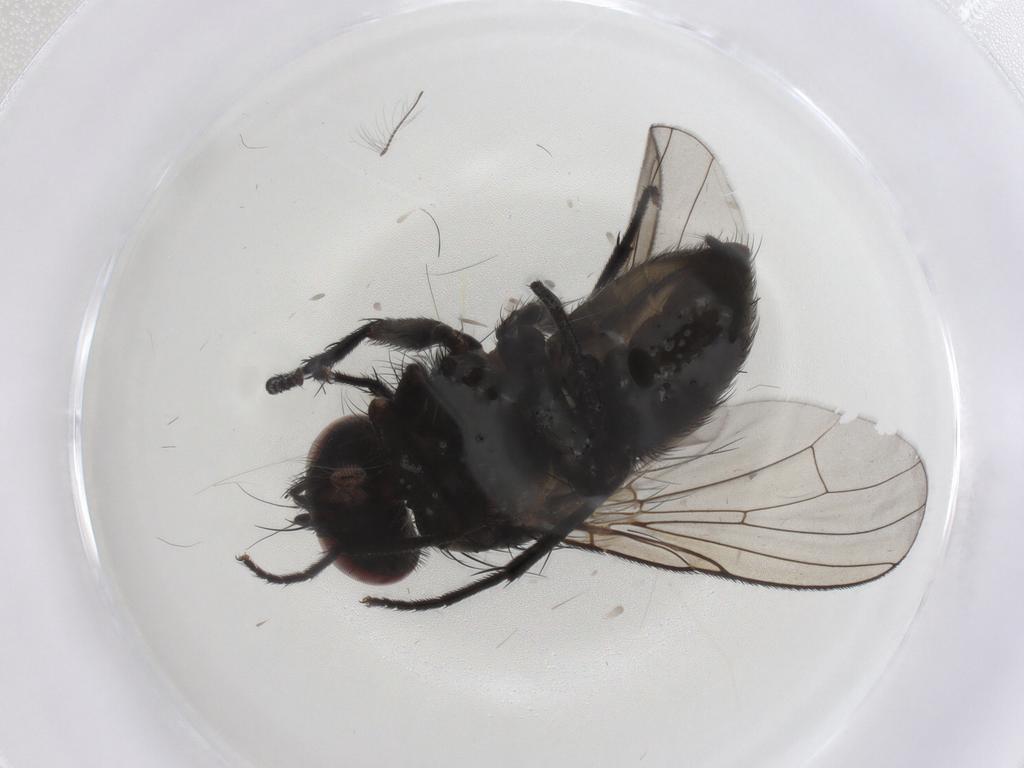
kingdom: Animalia
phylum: Arthropoda
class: Insecta
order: Diptera
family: Muscidae
